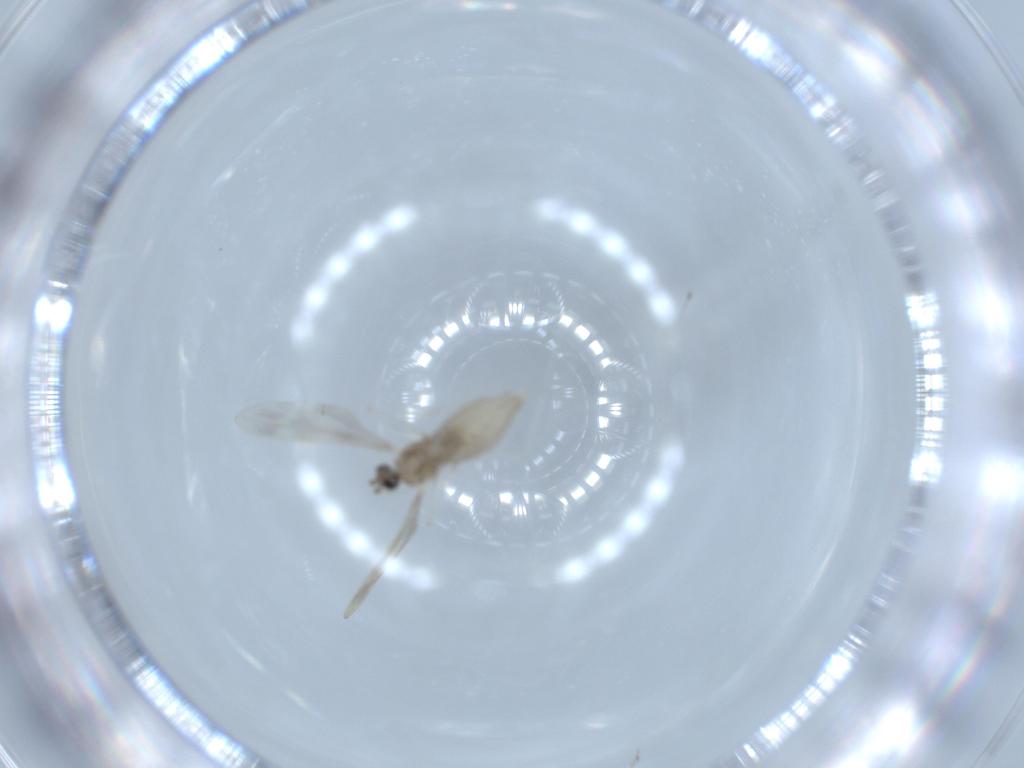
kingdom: Animalia
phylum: Arthropoda
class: Insecta
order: Diptera
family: Cecidomyiidae
